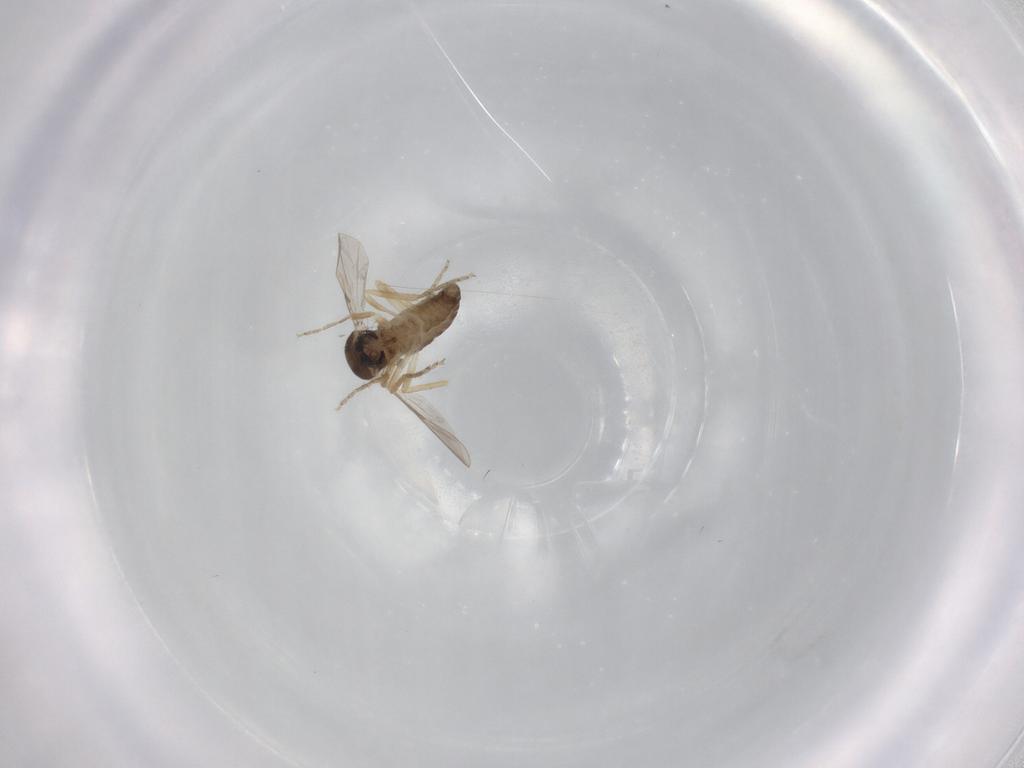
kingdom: Animalia
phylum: Arthropoda
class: Insecta
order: Diptera
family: Ceratopogonidae
